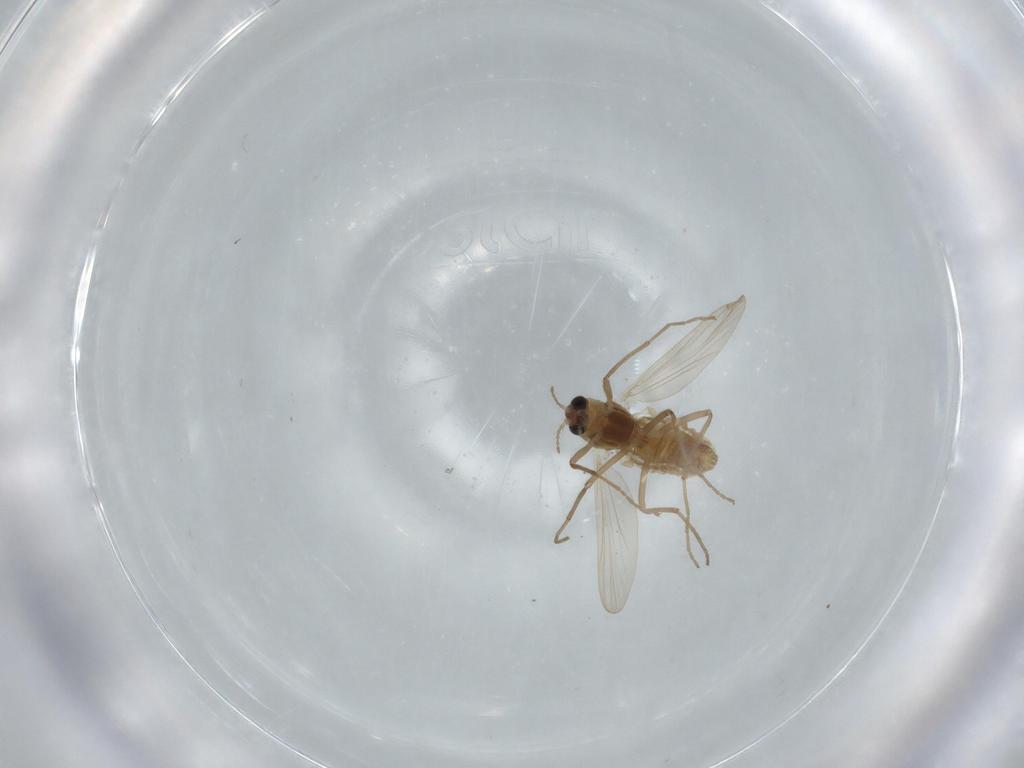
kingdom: Animalia
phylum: Arthropoda
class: Insecta
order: Diptera
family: Chironomidae
